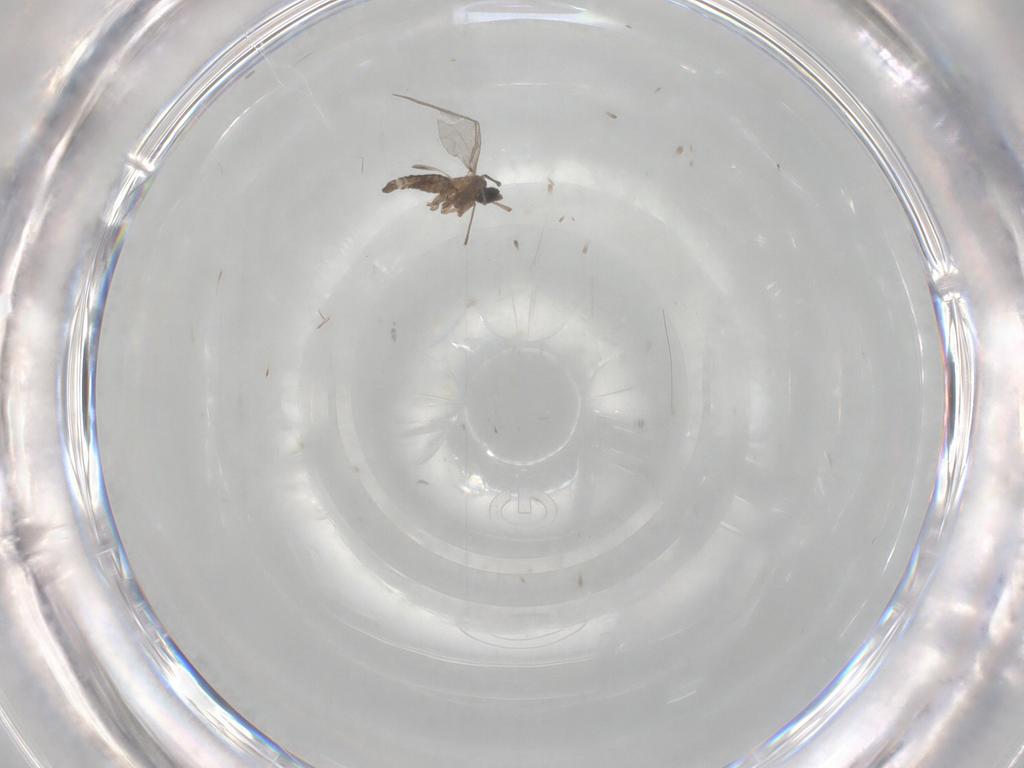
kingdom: Animalia
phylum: Arthropoda
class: Insecta
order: Diptera
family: Sciaridae
